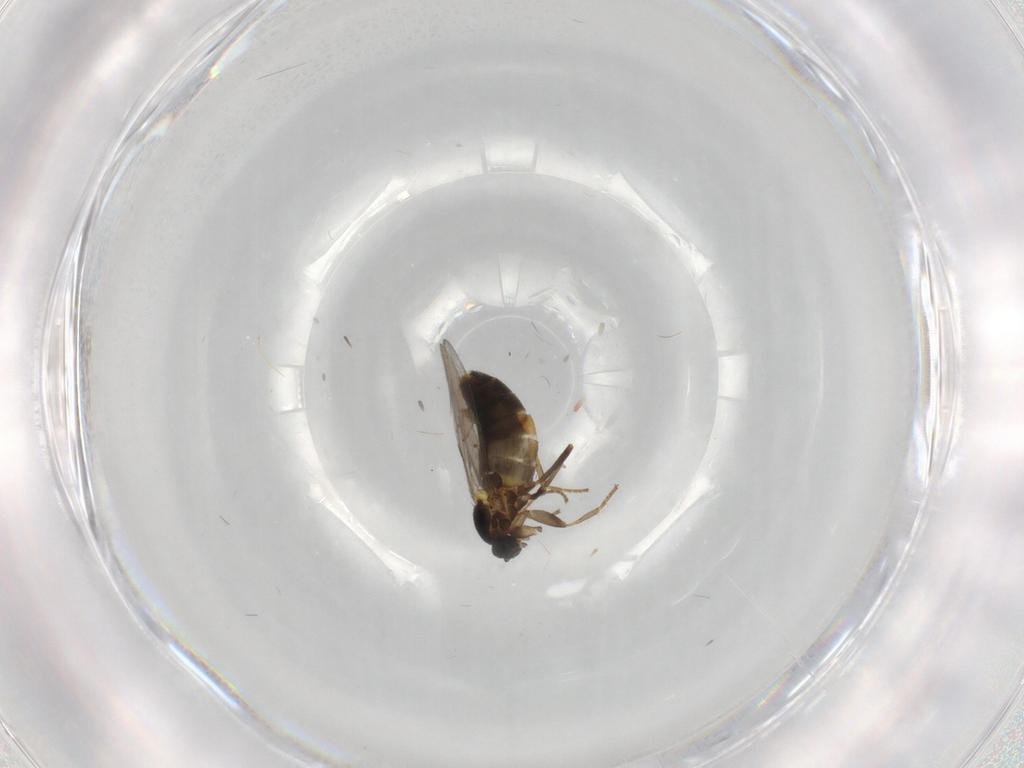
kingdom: Animalia
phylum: Arthropoda
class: Insecta
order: Diptera
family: Scatopsidae
